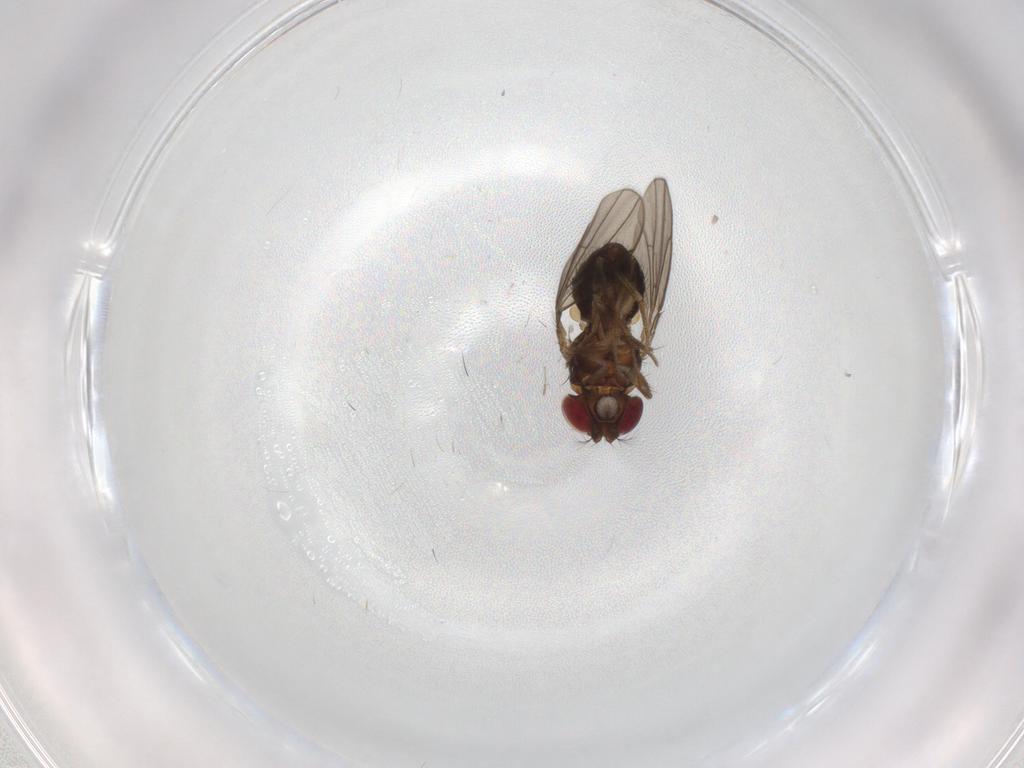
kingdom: Animalia
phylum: Arthropoda
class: Insecta
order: Diptera
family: Drosophilidae
